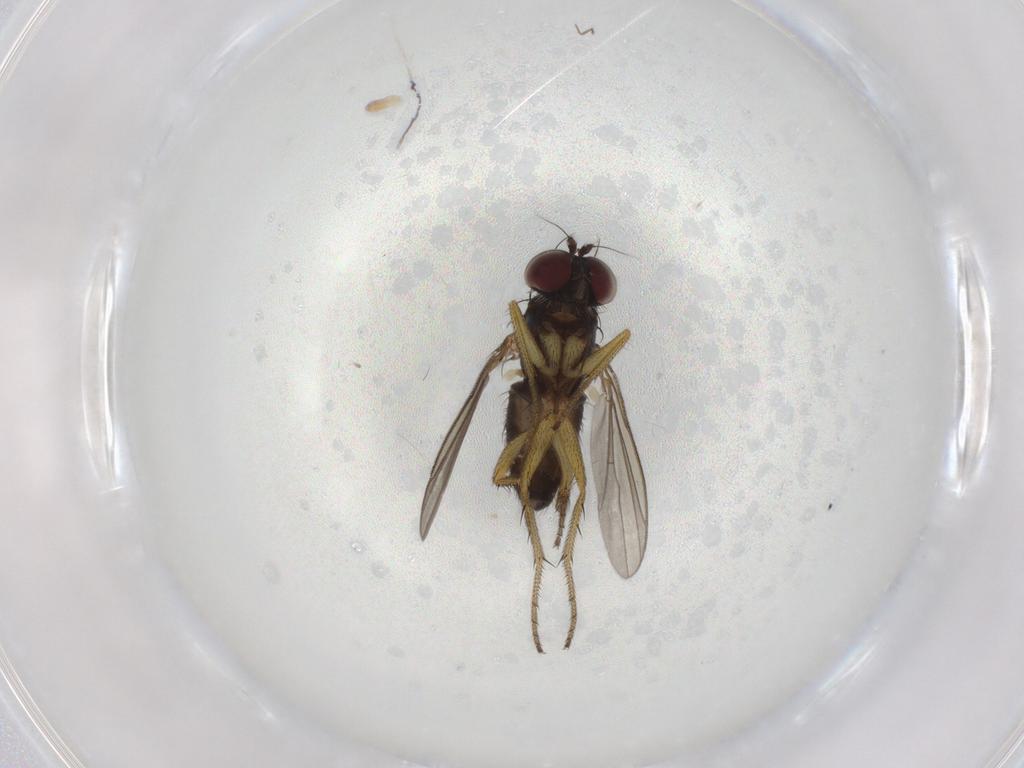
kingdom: Animalia
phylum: Arthropoda
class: Insecta
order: Diptera
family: Dolichopodidae
